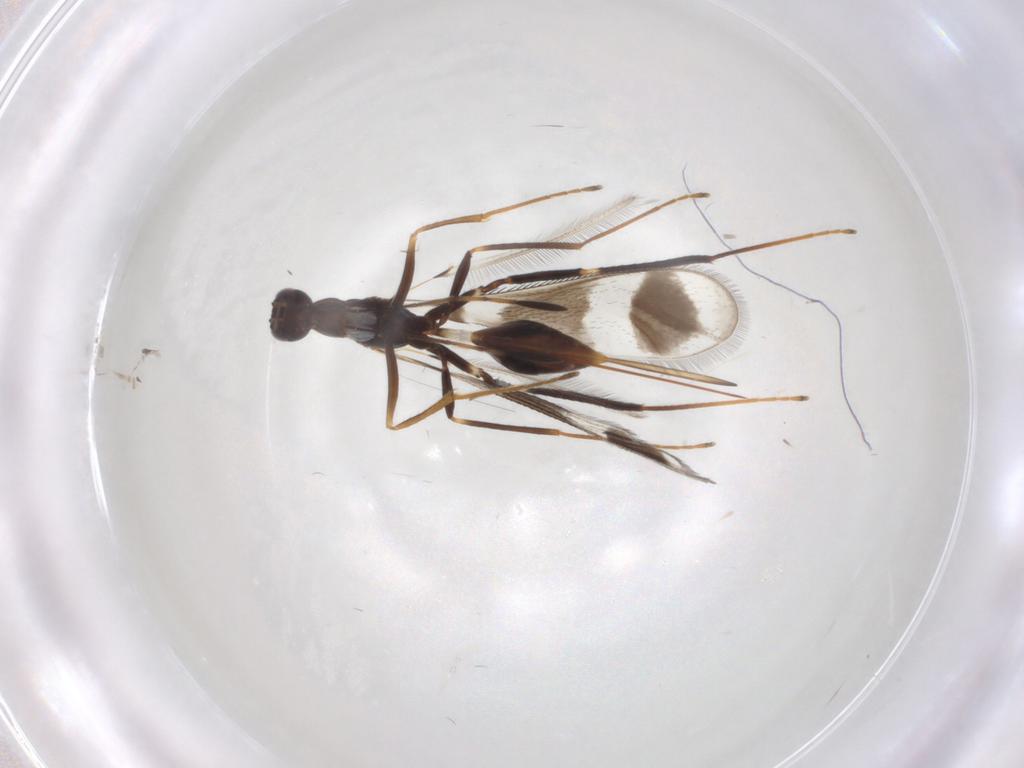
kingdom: Animalia
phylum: Arthropoda
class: Insecta
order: Hymenoptera
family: Mymaridae
